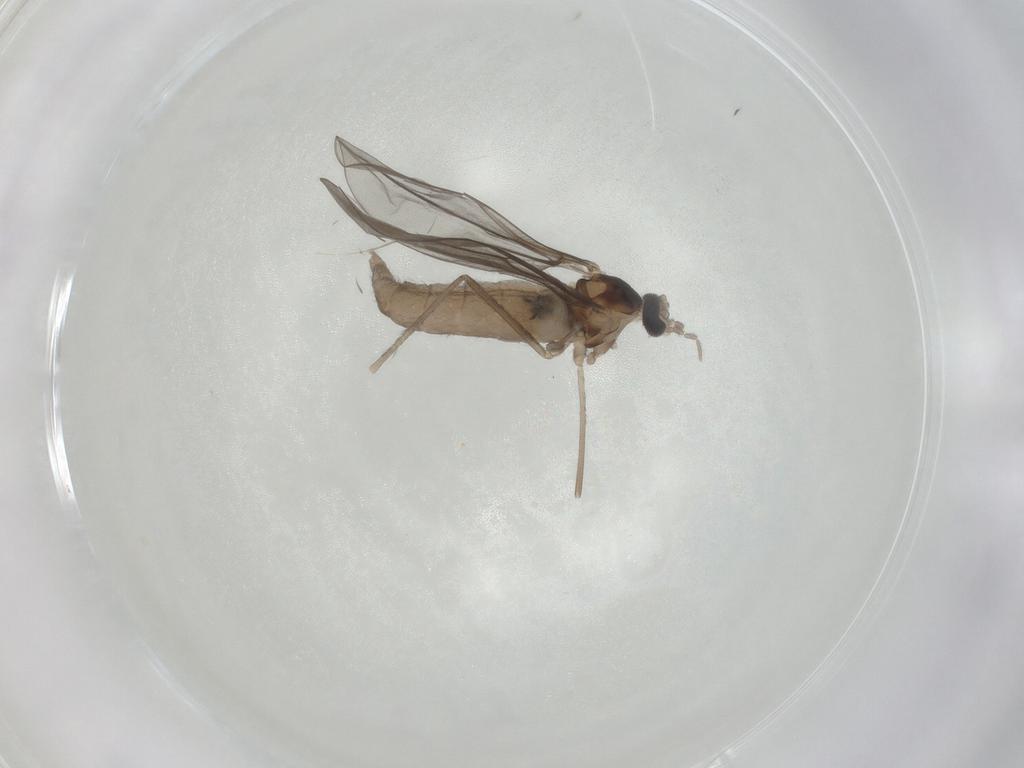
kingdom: Animalia
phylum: Arthropoda
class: Insecta
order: Diptera
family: Cecidomyiidae
